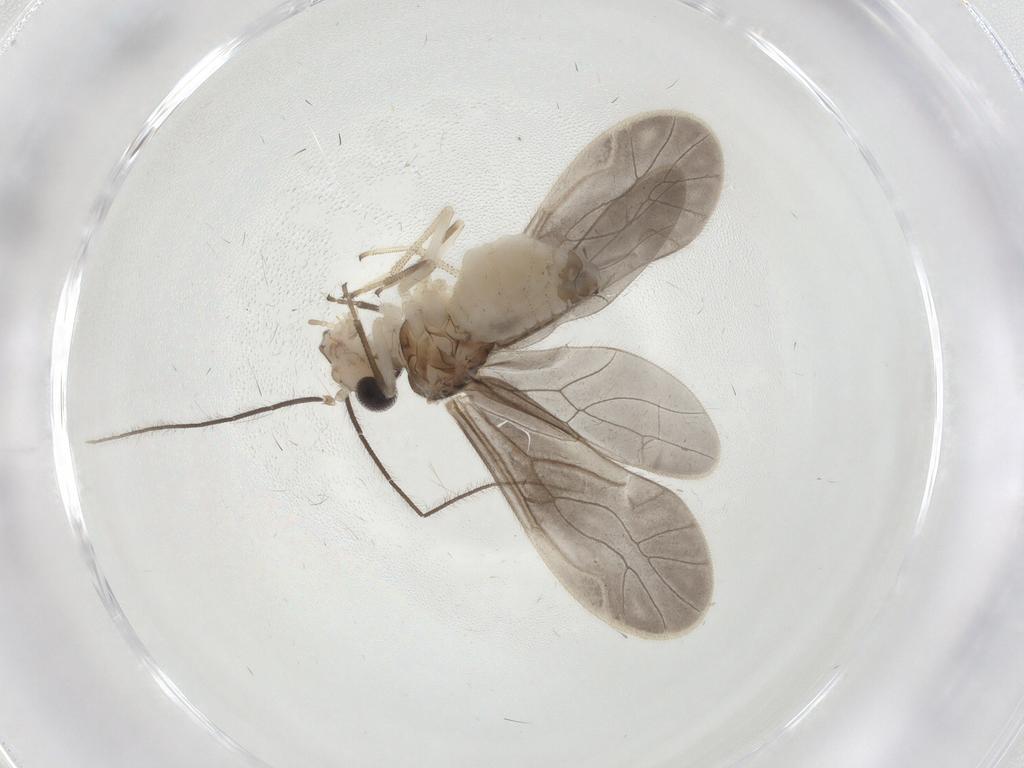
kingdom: Animalia
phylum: Arthropoda
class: Insecta
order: Psocodea
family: Caeciliusidae
